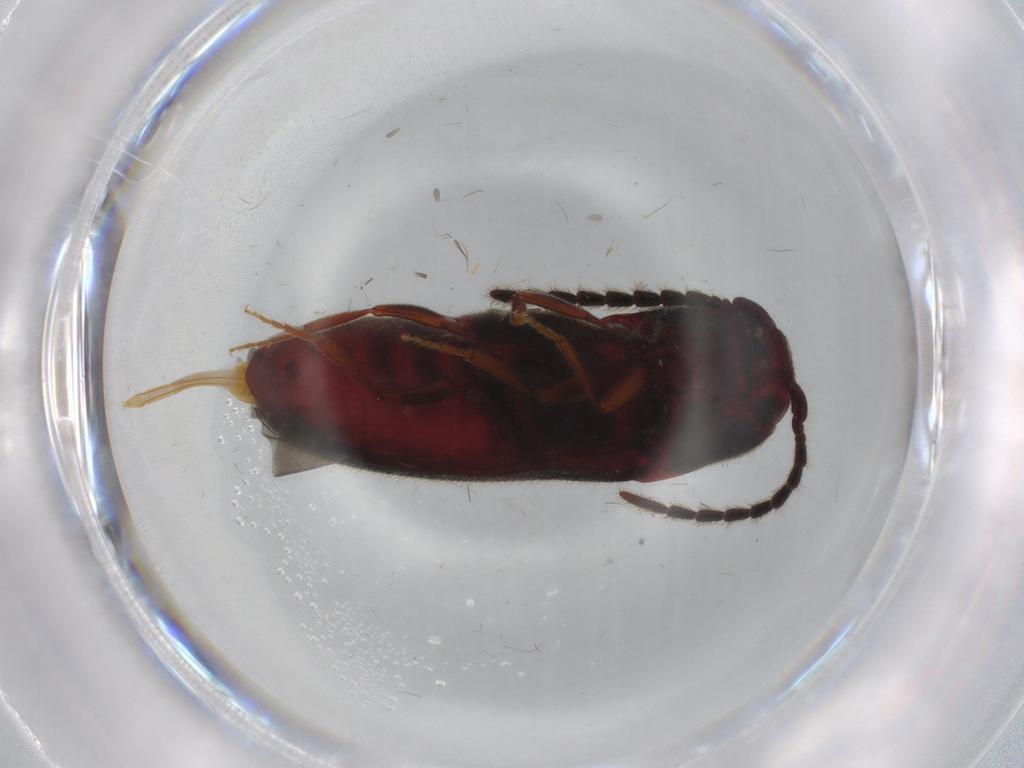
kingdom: Animalia
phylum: Arthropoda
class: Insecta
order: Coleoptera
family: Eucnemidae
